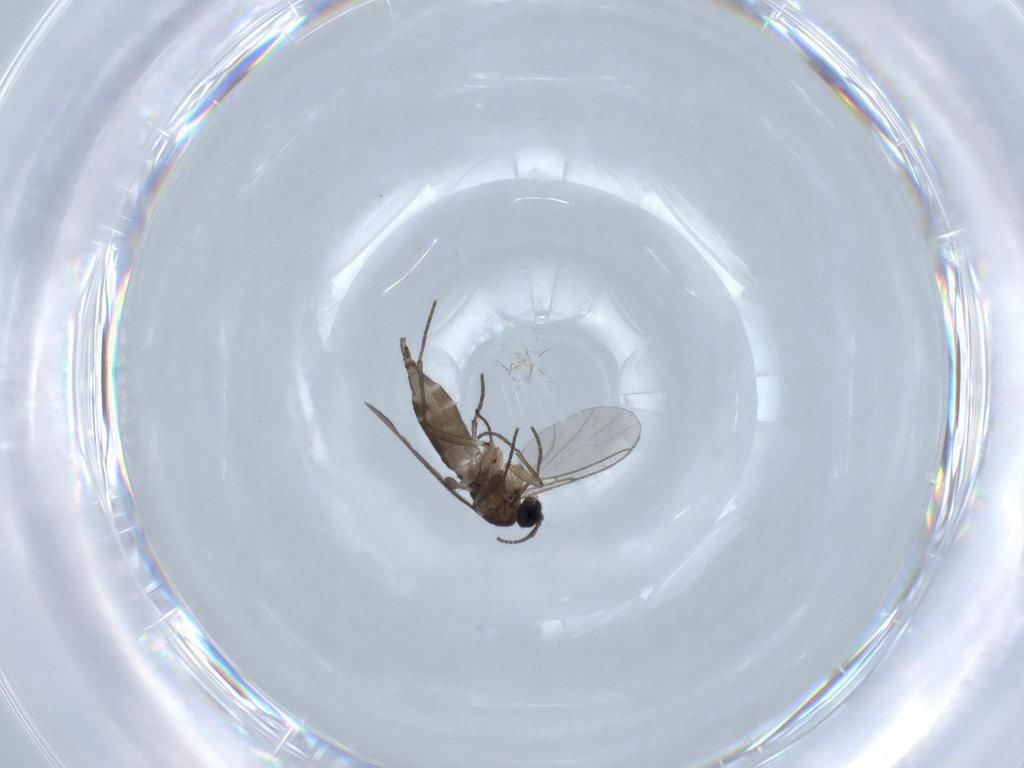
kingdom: Animalia
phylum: Arthropoda
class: Insecta
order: Diptera
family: Sciaridae
